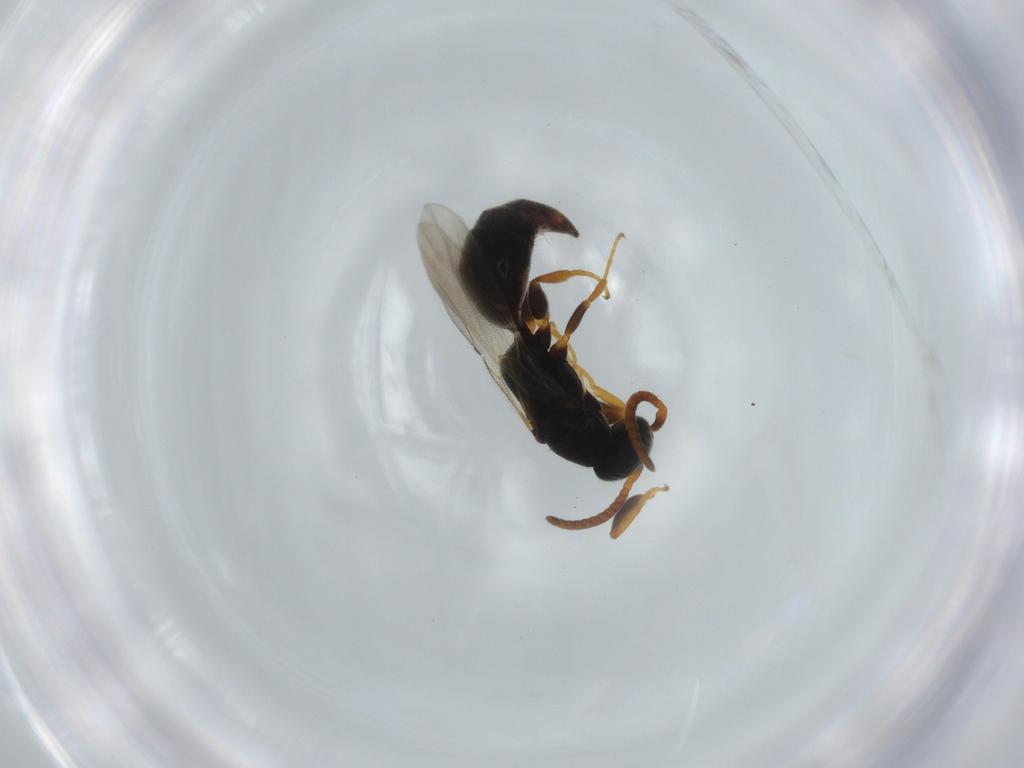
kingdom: Animalia
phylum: Arthropoda
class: Insecta
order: Hymenoptera
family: Bethylidae
